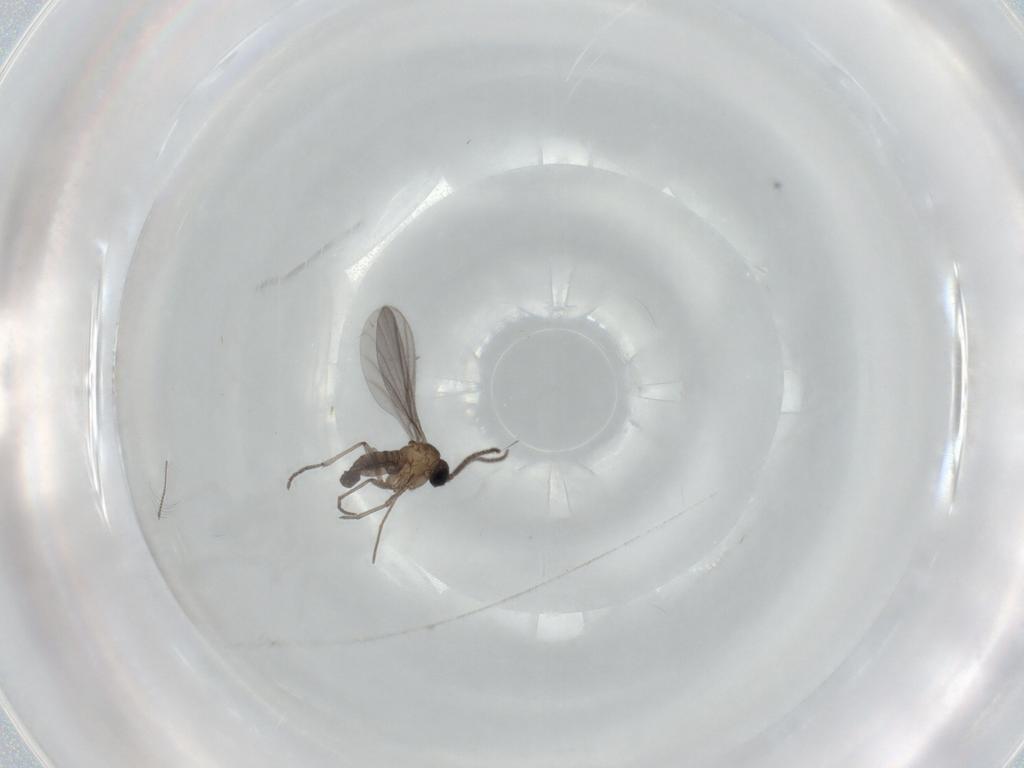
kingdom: Animalia
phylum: Arthropoda
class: Insecta
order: Diptera
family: Sciaridae
